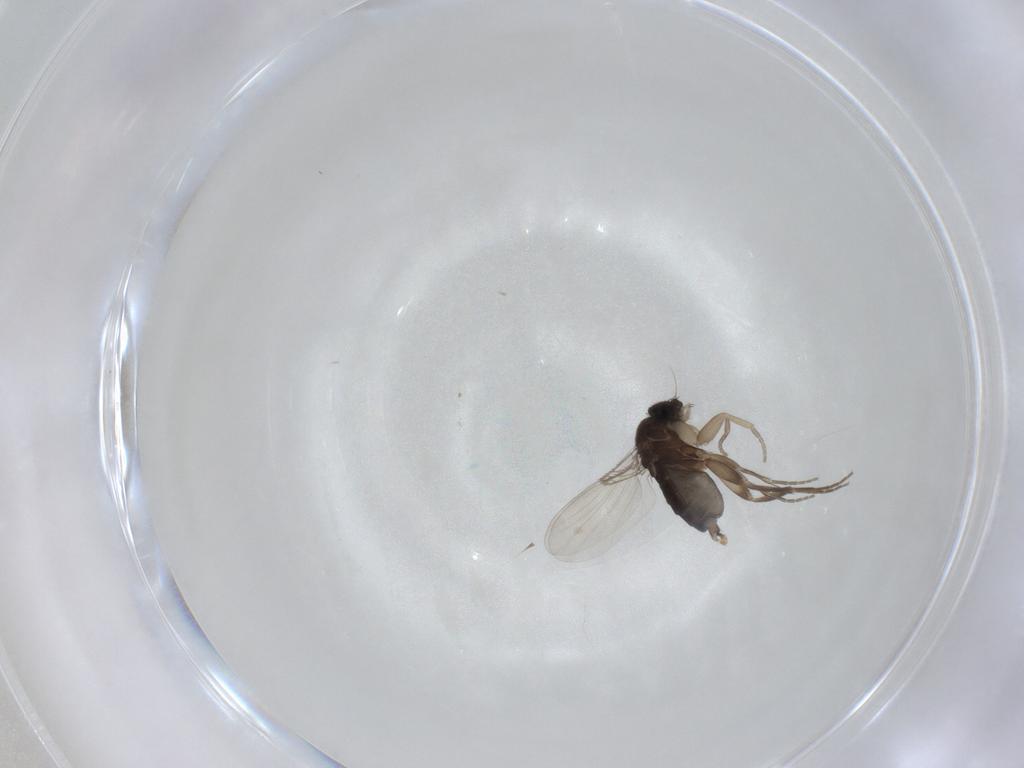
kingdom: Animalia
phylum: Arthropoda
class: Insecta
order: Diptera
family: Phoridae
